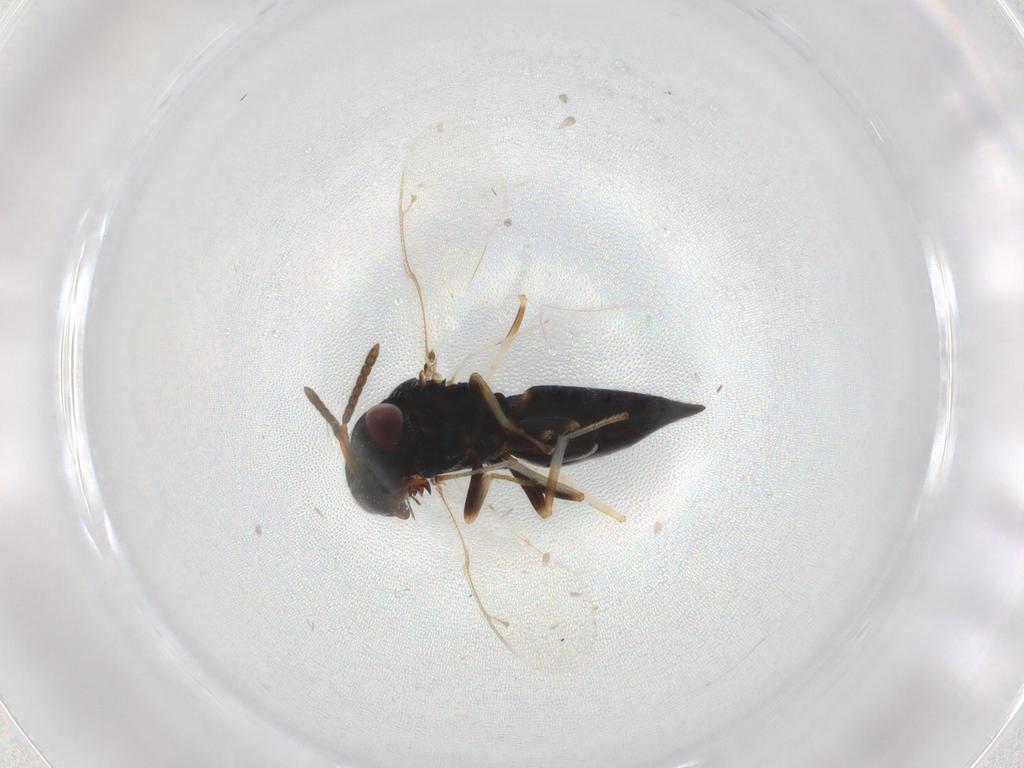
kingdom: Animalia
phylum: Arthropoda
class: Insecta
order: Hymenoptera
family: Pteromalidae
